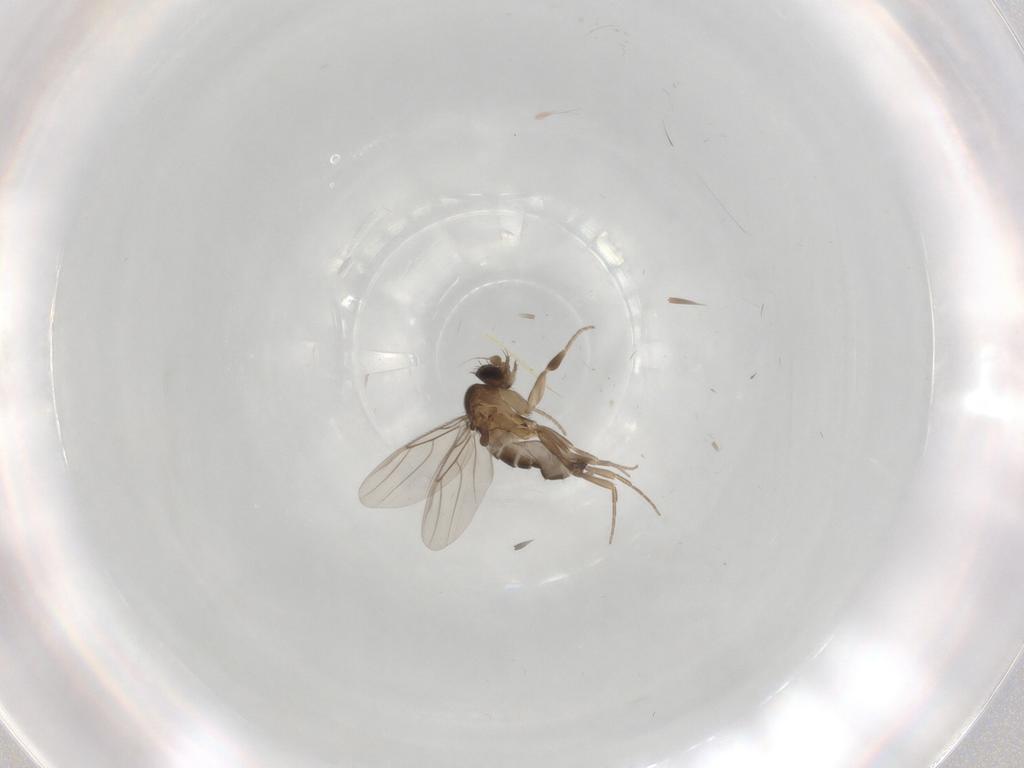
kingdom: Animalia
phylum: Arthropoda
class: Insecta
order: Diptera
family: Phoridae
